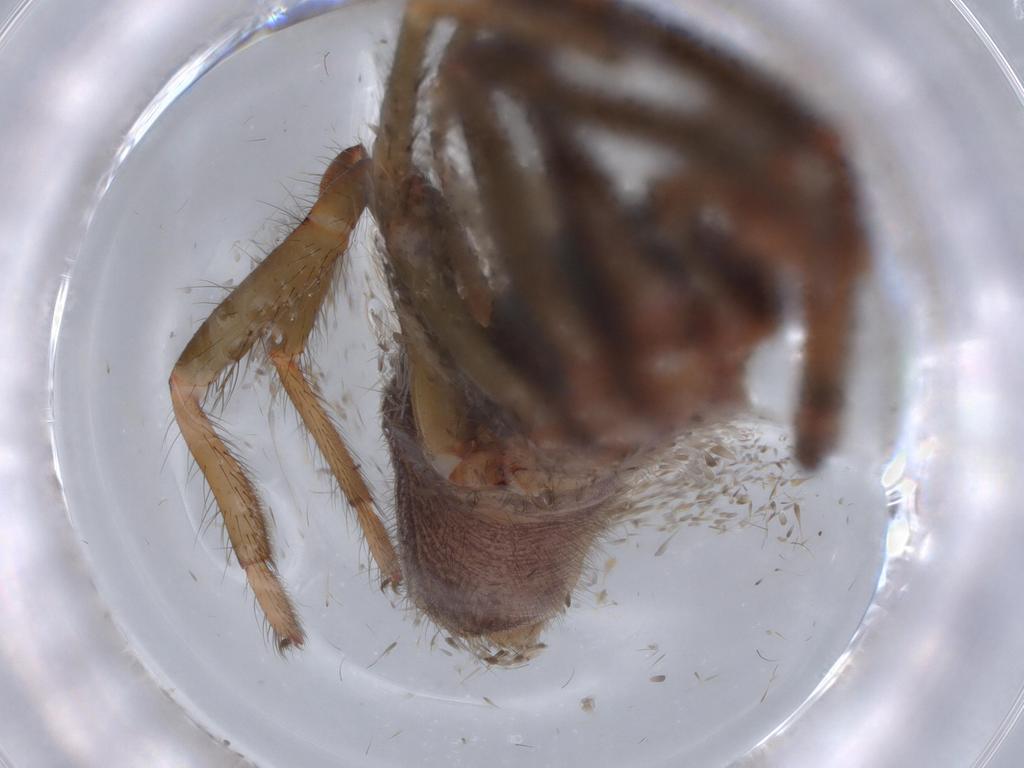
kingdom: Animalia
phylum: Arthropoda
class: Arachnida
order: Araneae
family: Segestriidae
